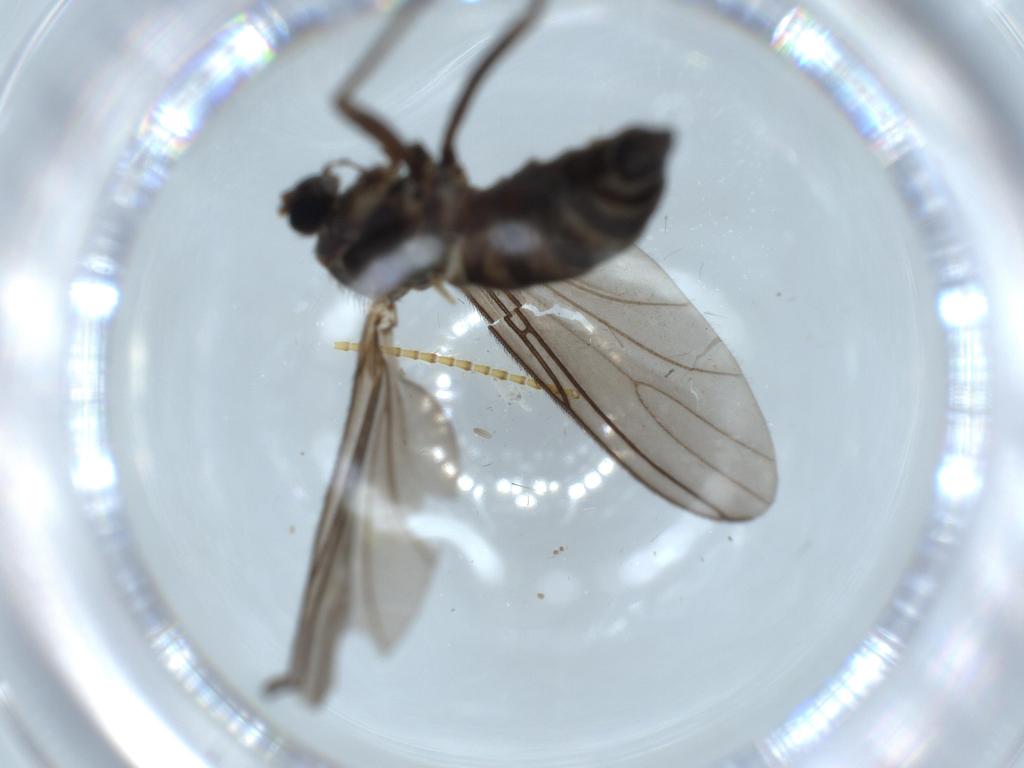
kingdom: Animalia
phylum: Arthropoda
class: Insecta
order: Diptera
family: Sciaridae
